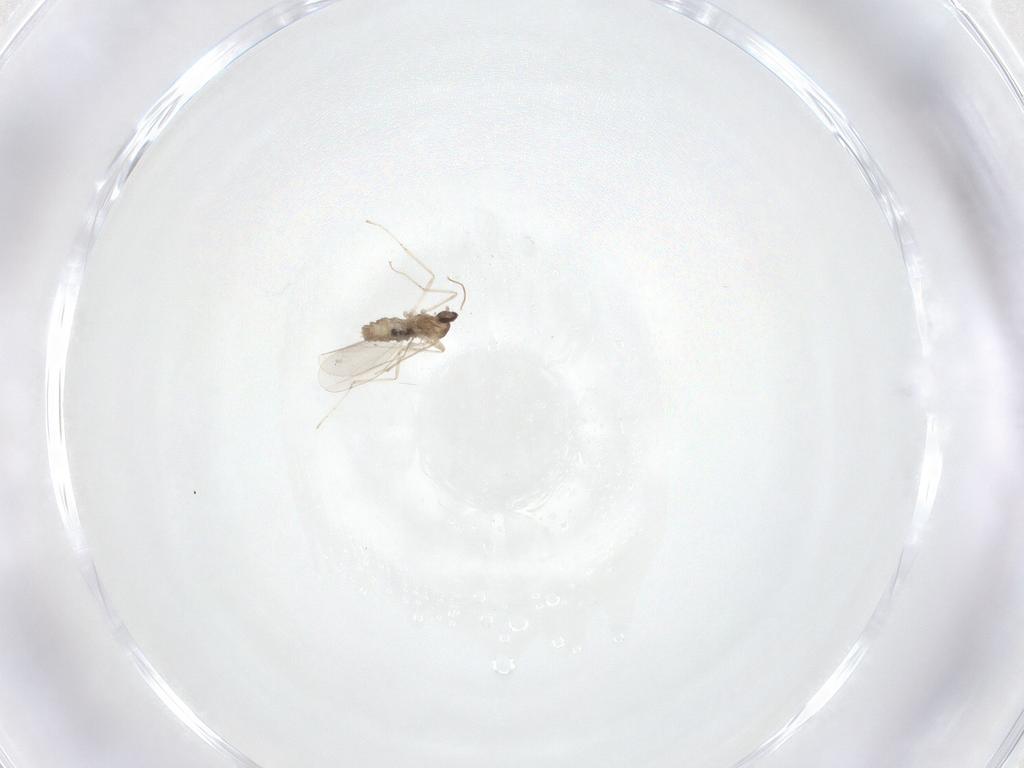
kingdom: Animalia
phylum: Arthropoda
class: Insecta
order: Diptera
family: Cecidomyiidae
